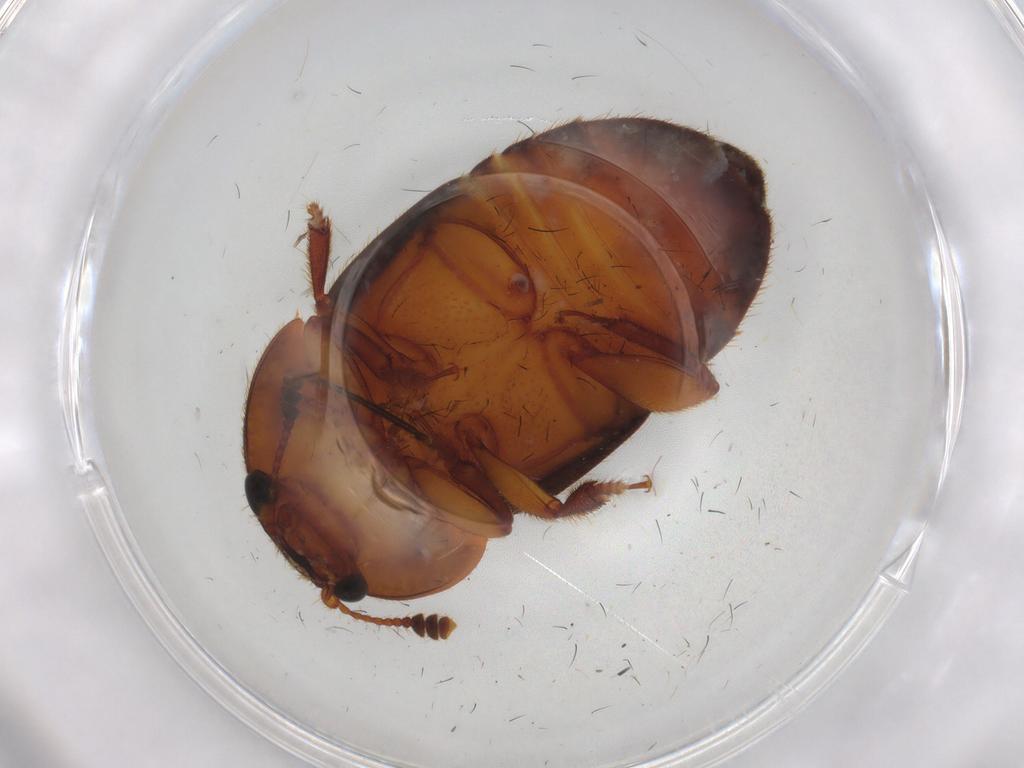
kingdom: Animalia
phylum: Arthropoda
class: Insecta
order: Coleoptera
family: Nitidulidae
